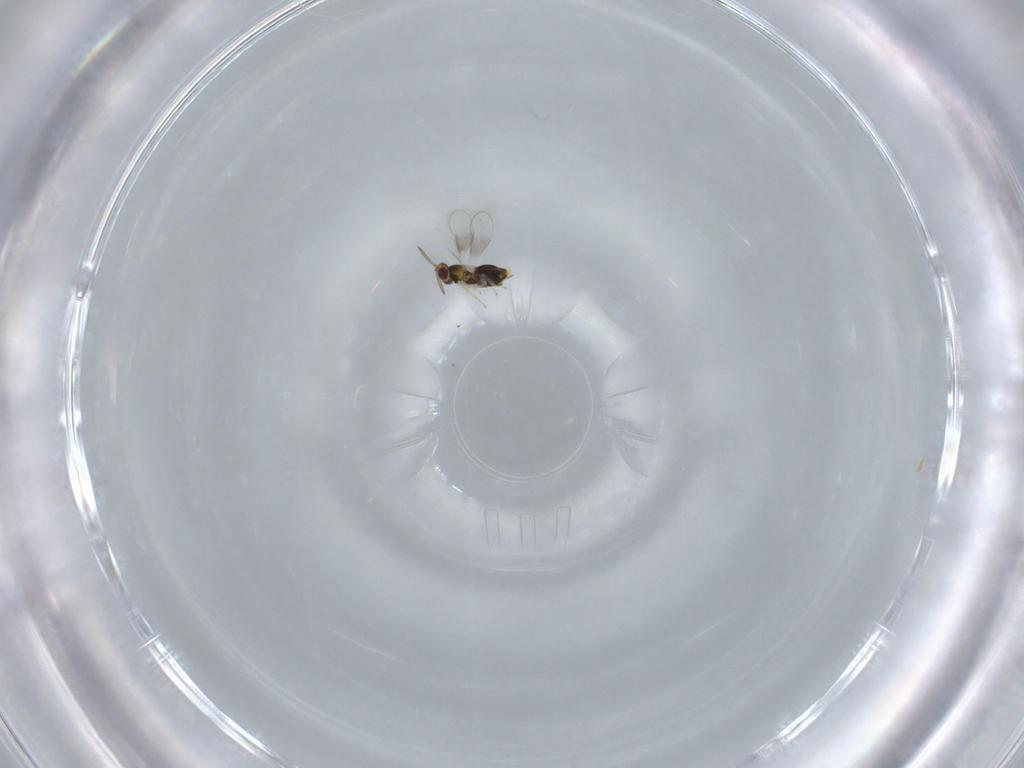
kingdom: Animalia
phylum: Arthropoda
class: Insecta
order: Hymenoptera
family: Aphelinidae
